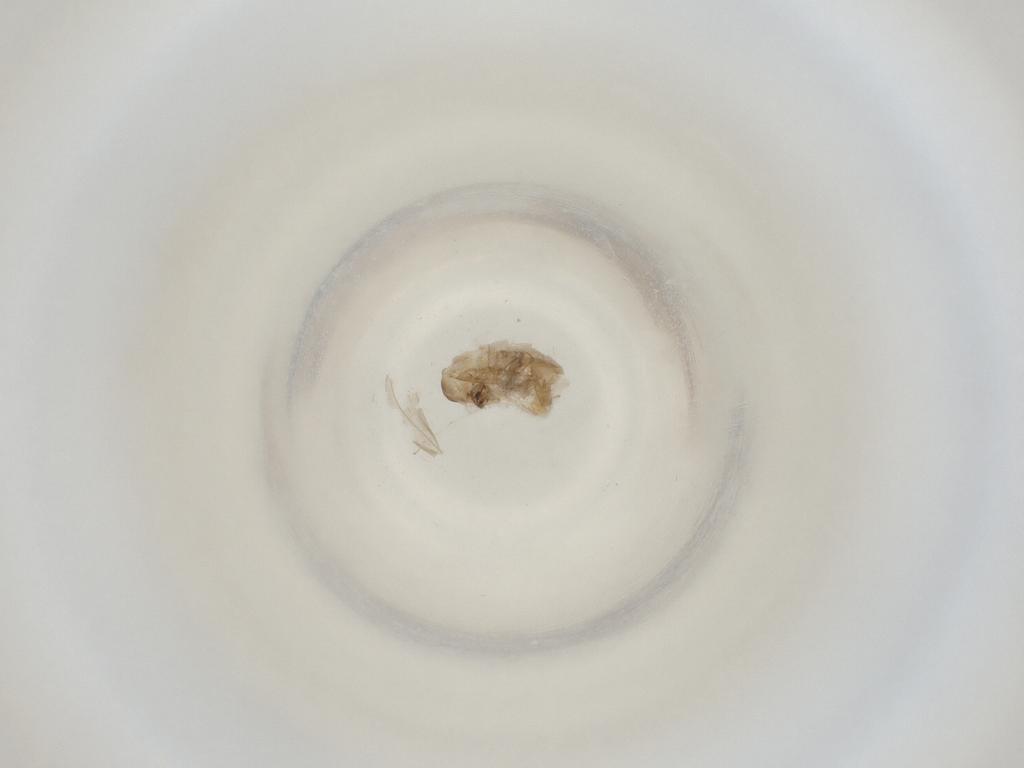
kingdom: Animalia
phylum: Arthropoda
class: Insecta
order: Diptera
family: Cecidomyiidae
